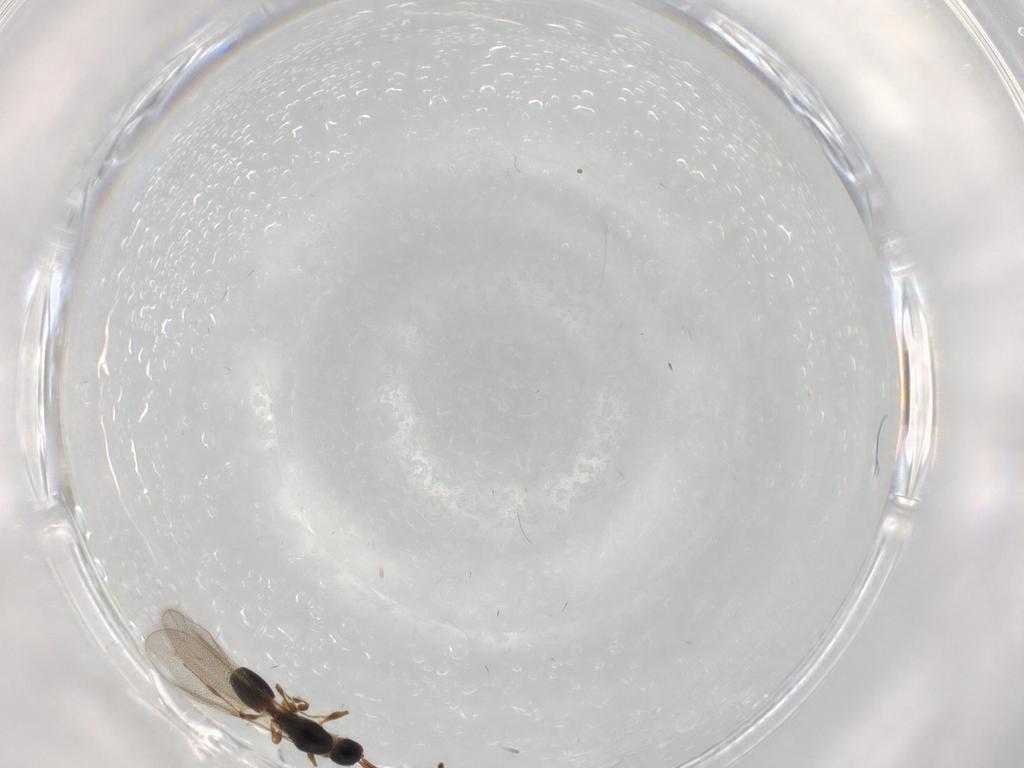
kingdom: Animalia
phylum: Arthropoda
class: Insecta
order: Hymenoptera
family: Diapriidae
